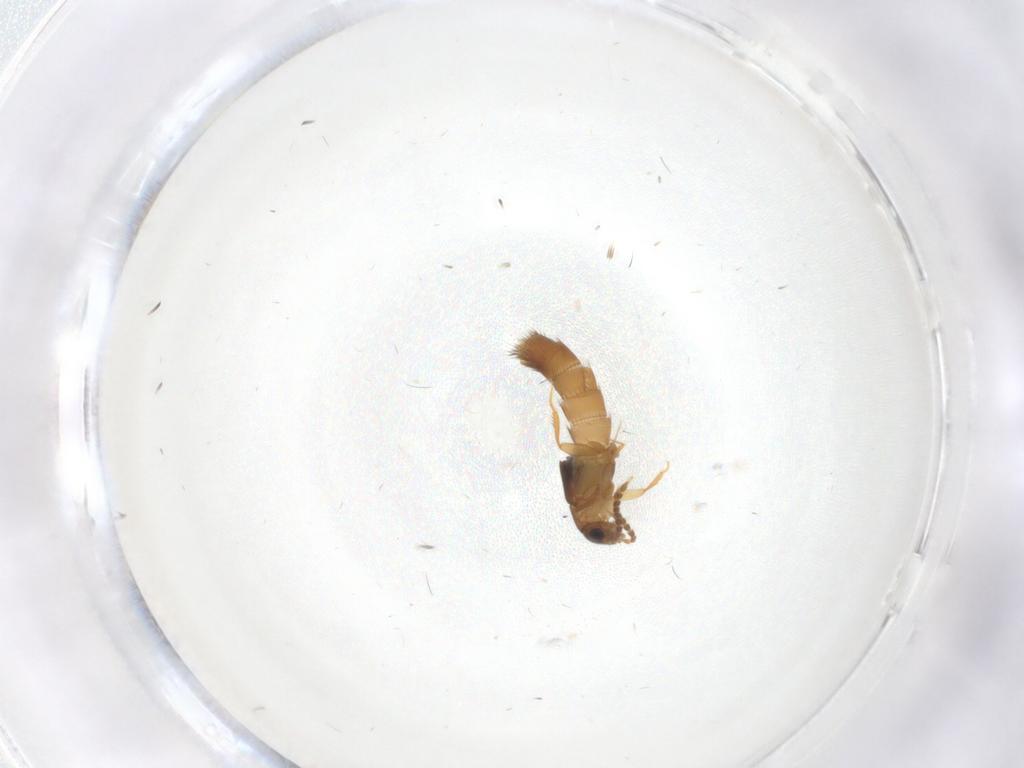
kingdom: Animalia
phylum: Arthropoda
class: Insecta
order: Coleoptera
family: Staphylinidae
